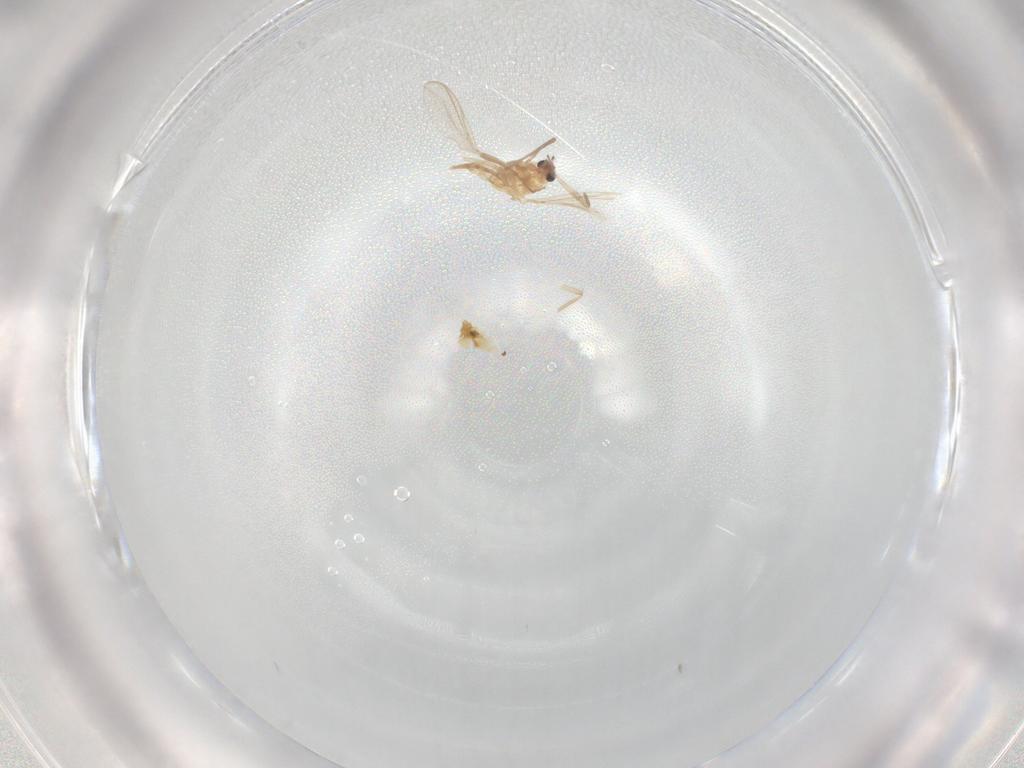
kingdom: Animalia
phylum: Arthropoda
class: Insecta
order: Diptera
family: Chironomidae
